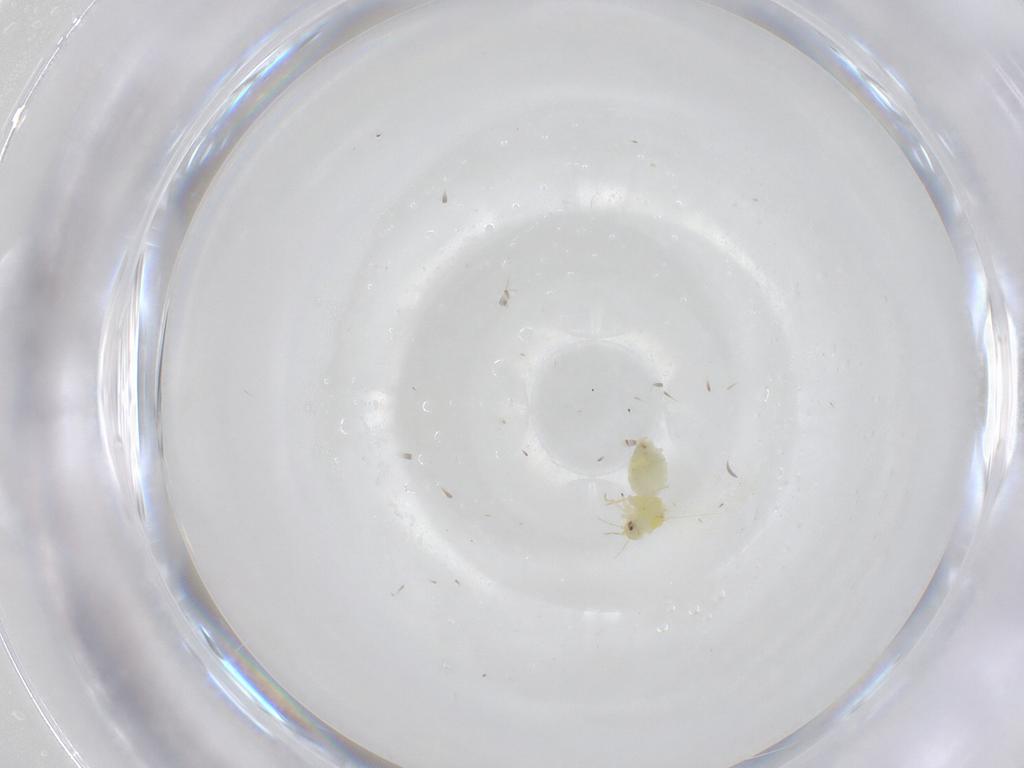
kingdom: Animalia
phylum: Arthropoda
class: Insecta
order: Hemiptera
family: Aleyrodidae
